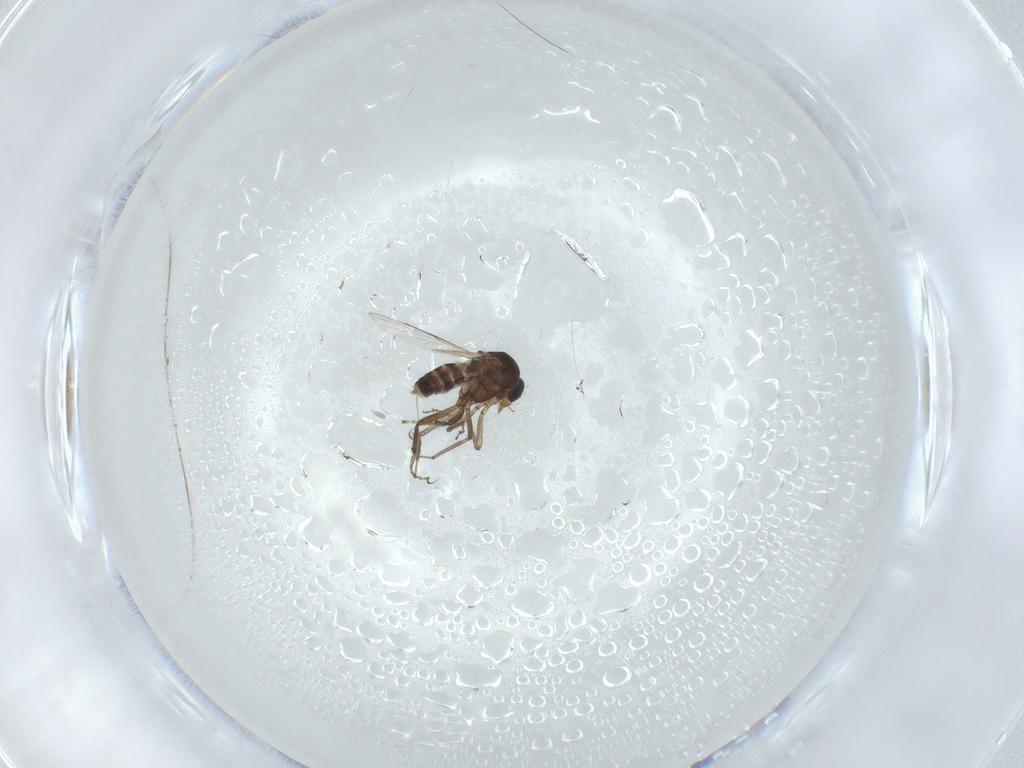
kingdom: Animalia
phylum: Arthropoda
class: Insecta
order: Diptera
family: Ceratopogonidae
